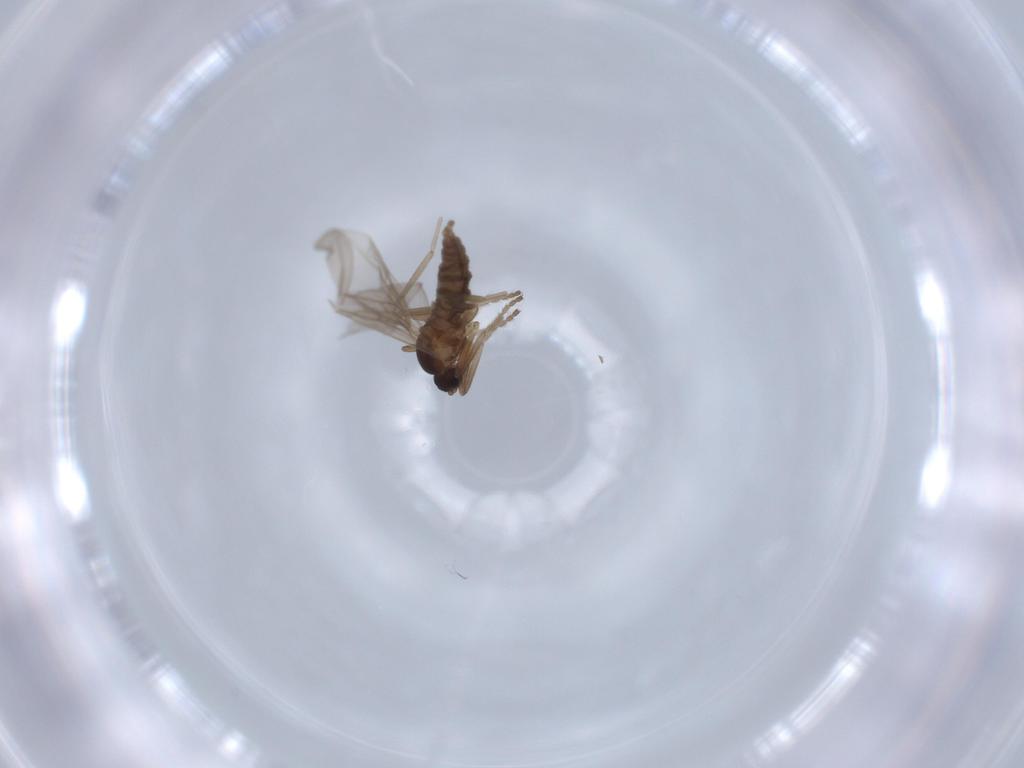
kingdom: Animalia
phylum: Arthropoda
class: Insecta
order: Diptera
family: Cecidomyiidae
